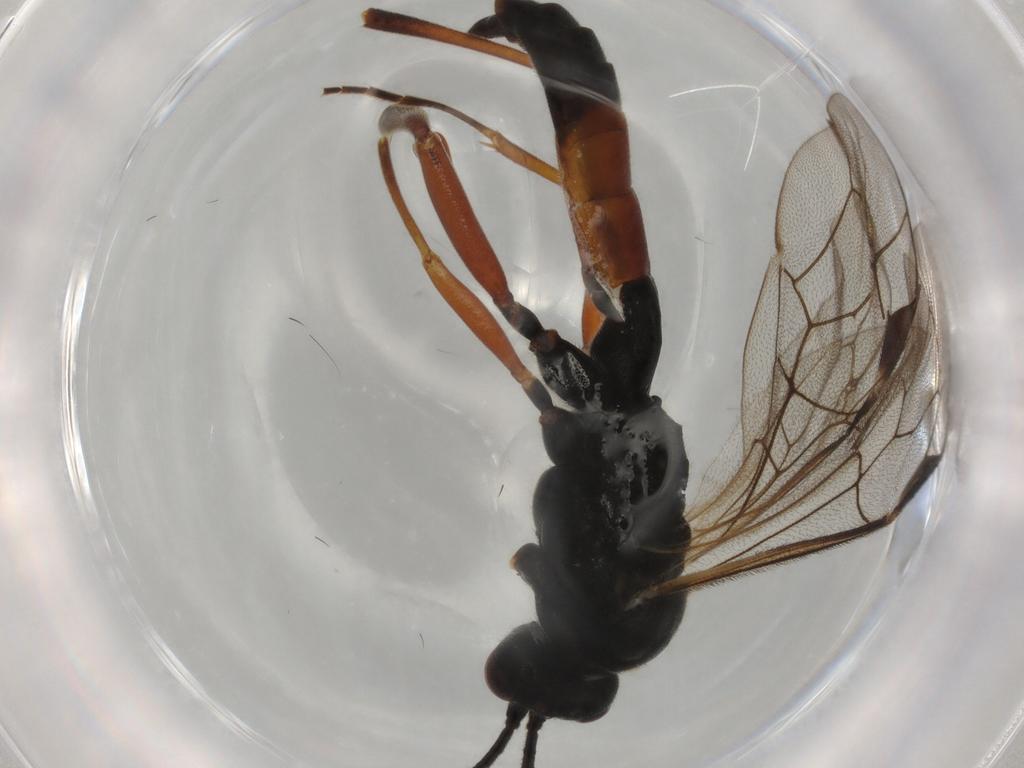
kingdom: Animalia
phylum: Arthropoda
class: Insecta
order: Hymenoptera
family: Formicidae
